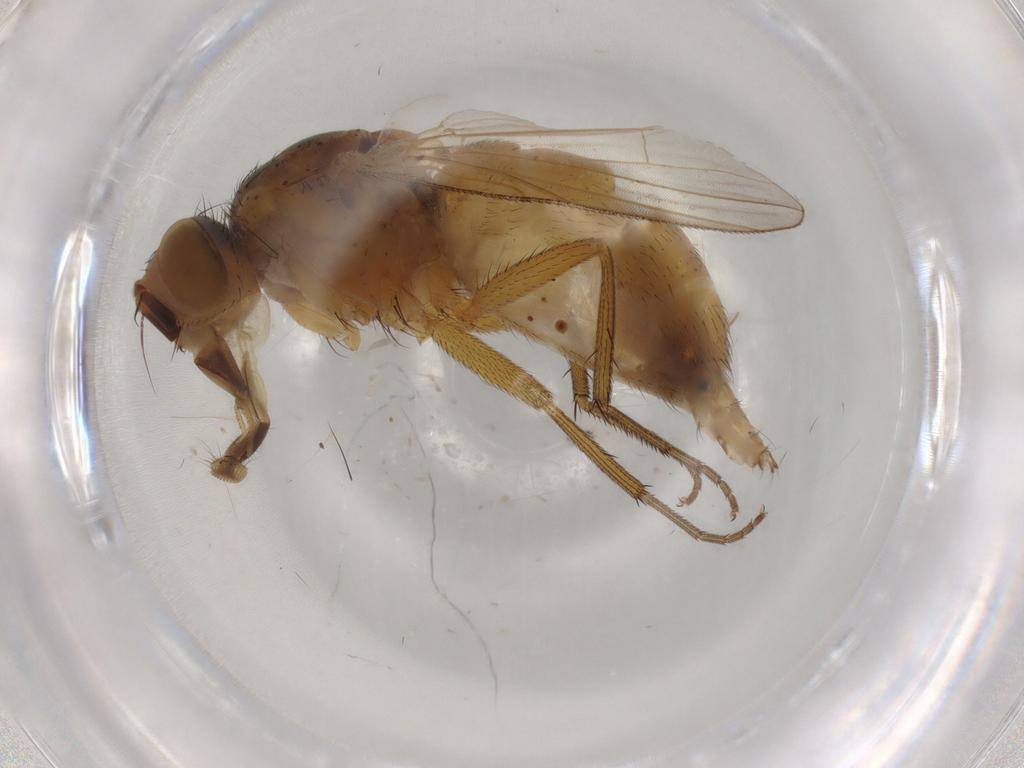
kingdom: Animalia
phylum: Arthropoda
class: Insecta
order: Diptera
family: Muscidae
